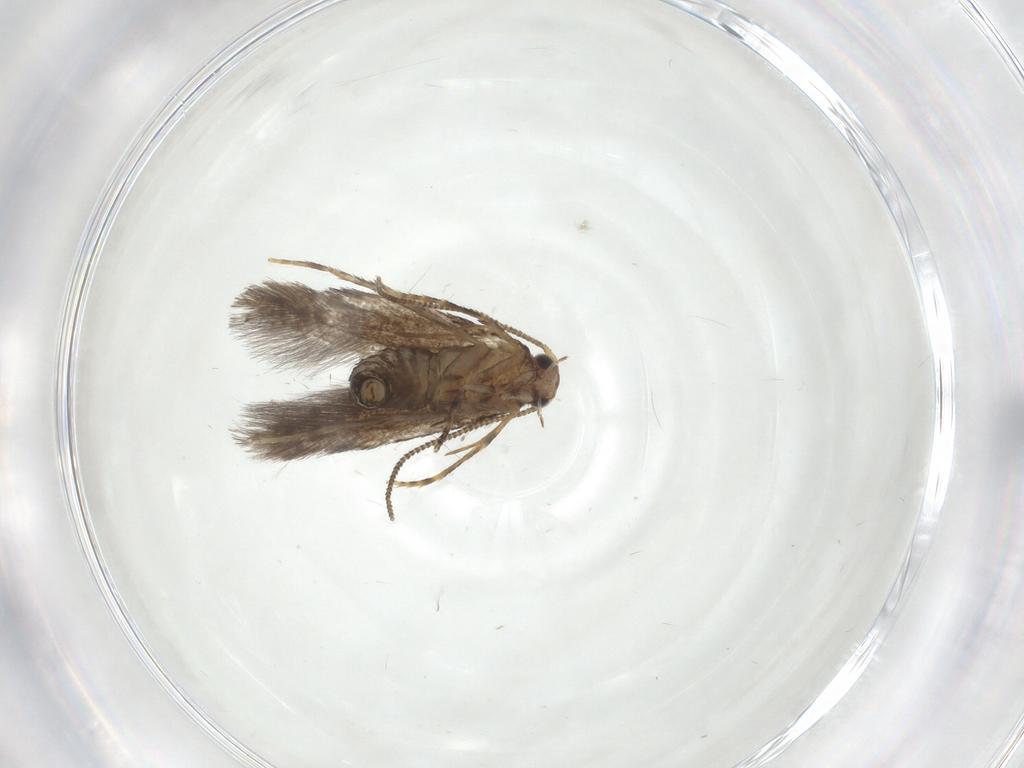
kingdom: Animalia
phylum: Arthropoda
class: Insecta
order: Lepidoptera
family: Tineidae
